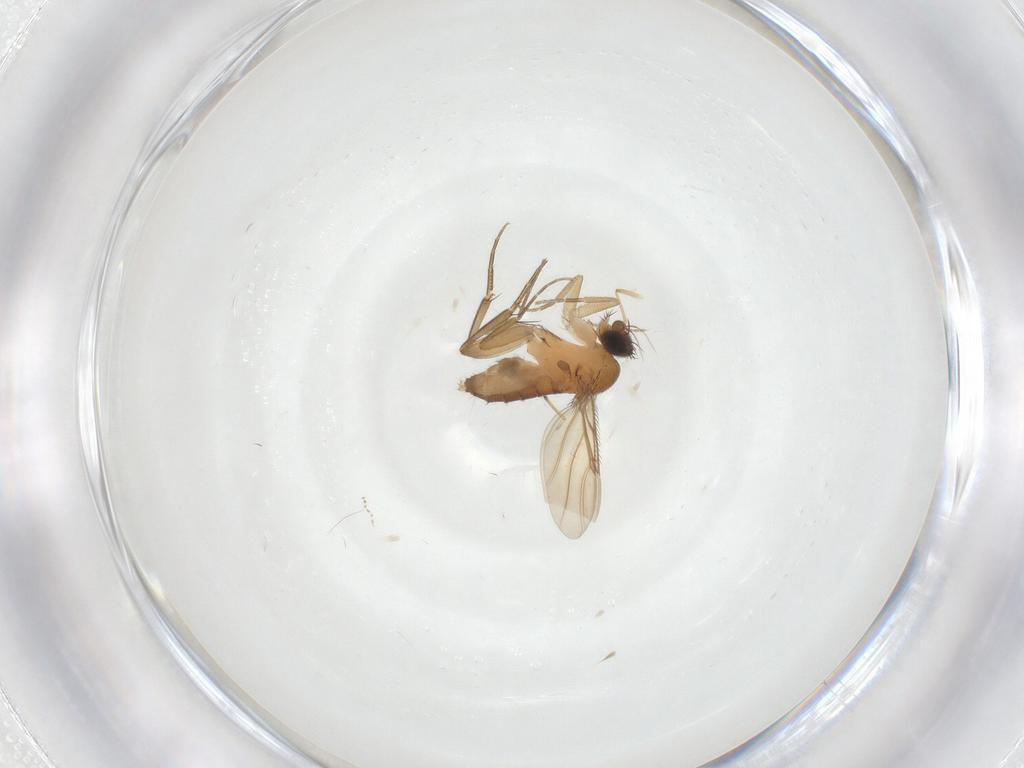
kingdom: Animalia
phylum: Arthropoda
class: Insecta
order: Diptera
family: Phoridae
